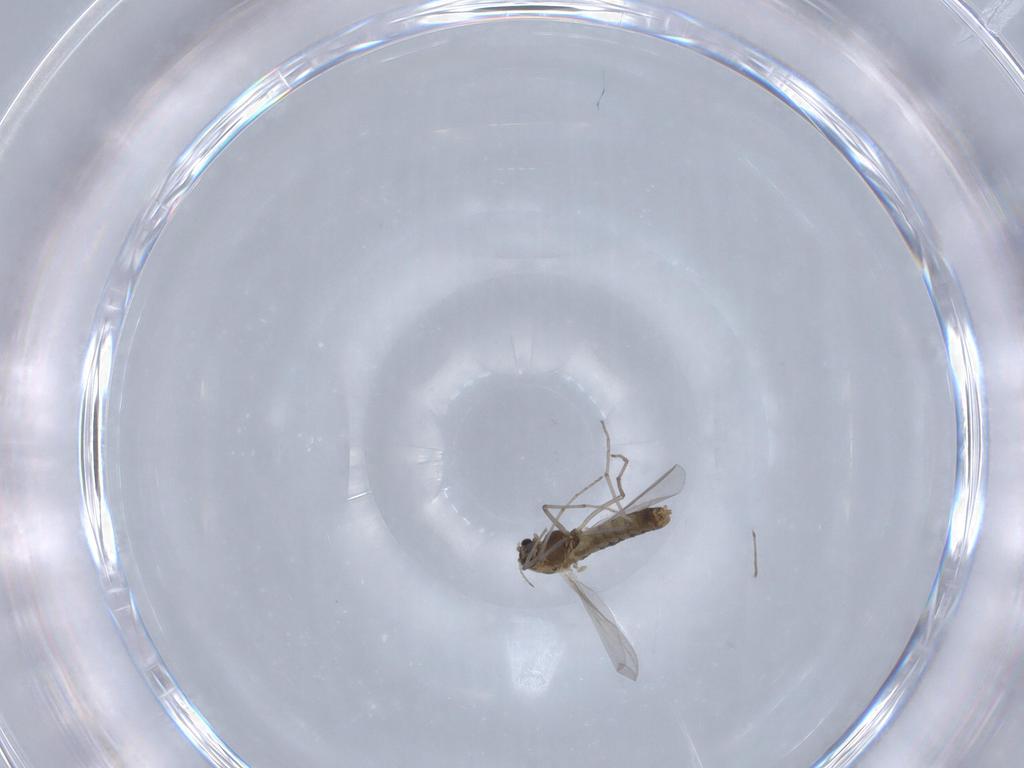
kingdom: Animalia
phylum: Arthropoda
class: Insecta
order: Diptera
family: Chironomidae
